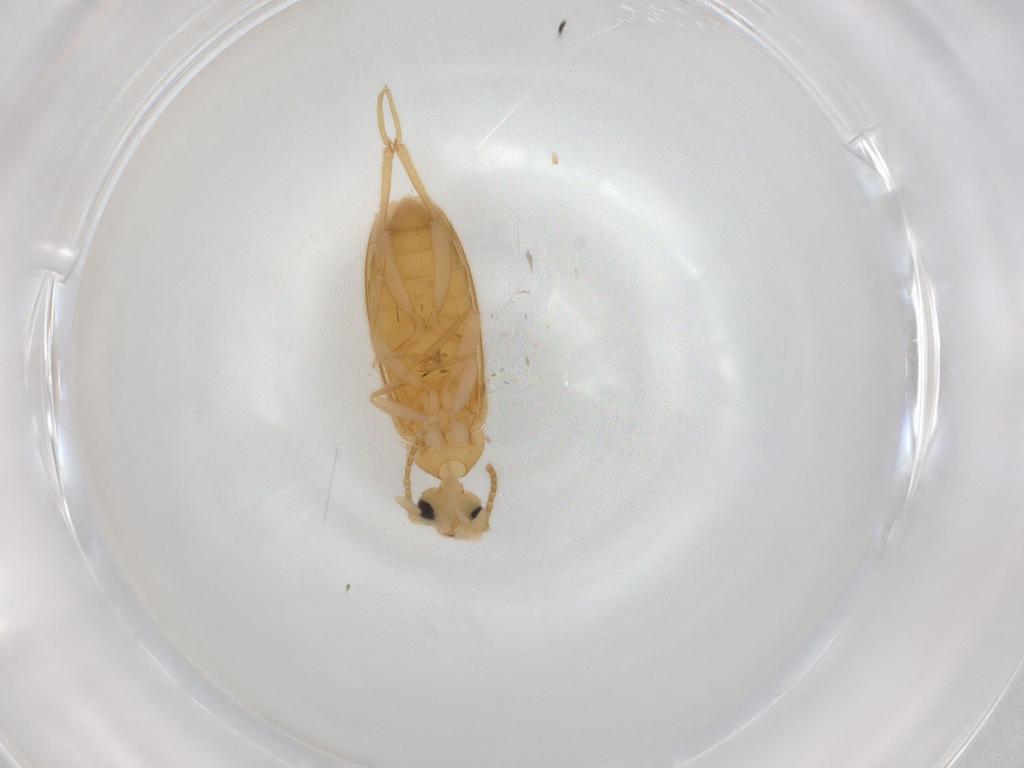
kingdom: Animalia
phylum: Arthropoda
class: Insecta
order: Coleoptera
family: Scraptiidae
